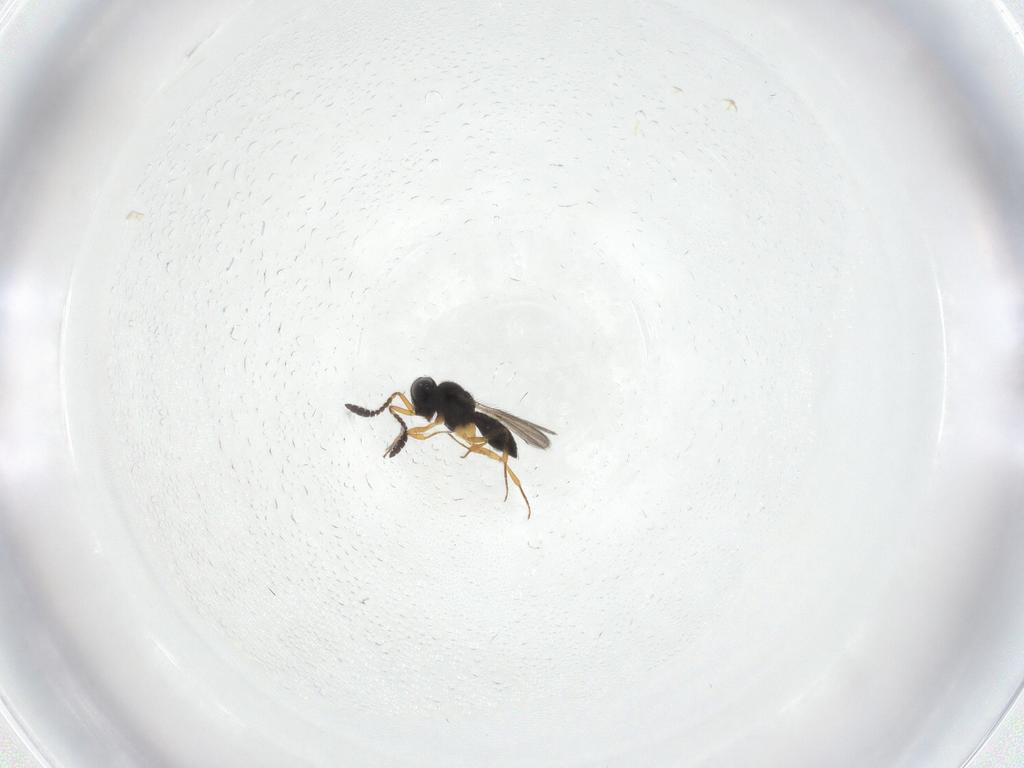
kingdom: Animalia
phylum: Arthropoda
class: Insecta
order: Hymenoptera
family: Scelionidae
